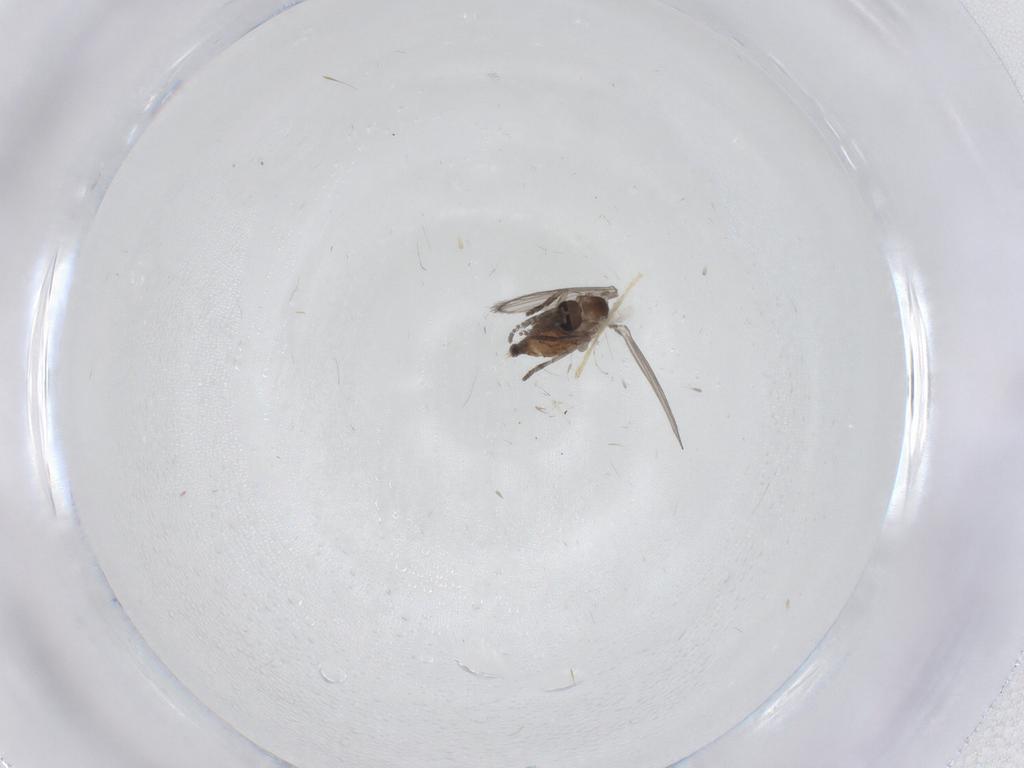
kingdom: Animalia
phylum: Arthropoda
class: Insecta
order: Diptera
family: Psychodidae
